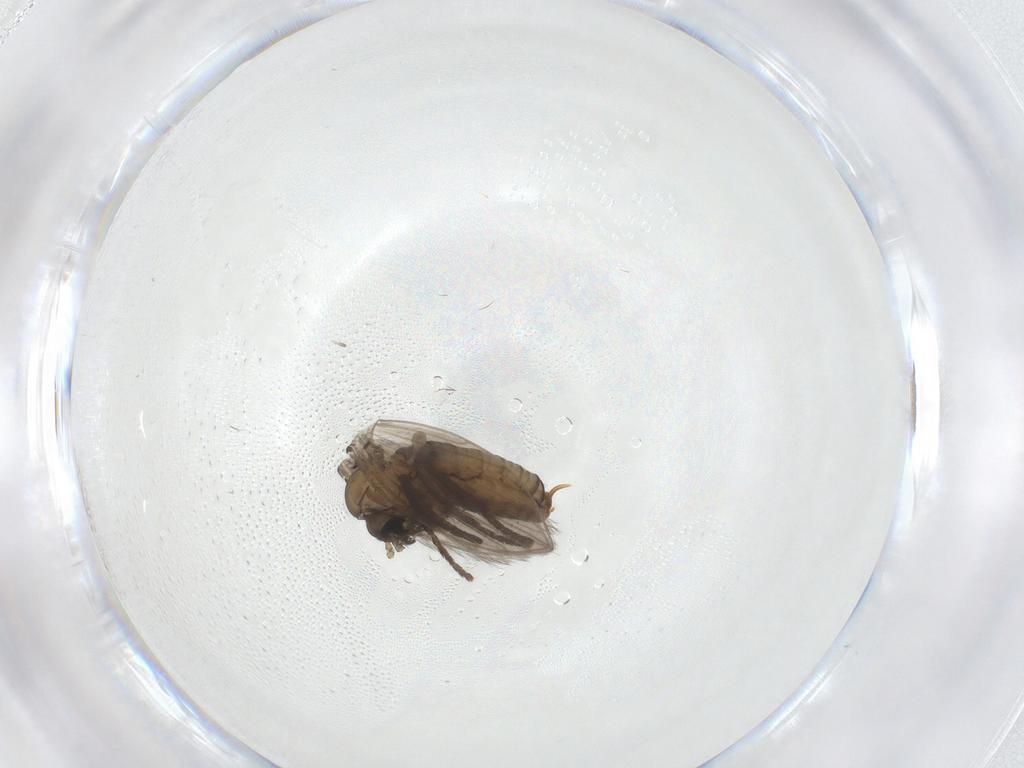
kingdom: Animalia
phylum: Arthropoda
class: Insecta
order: Diptera
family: Psychodidae
